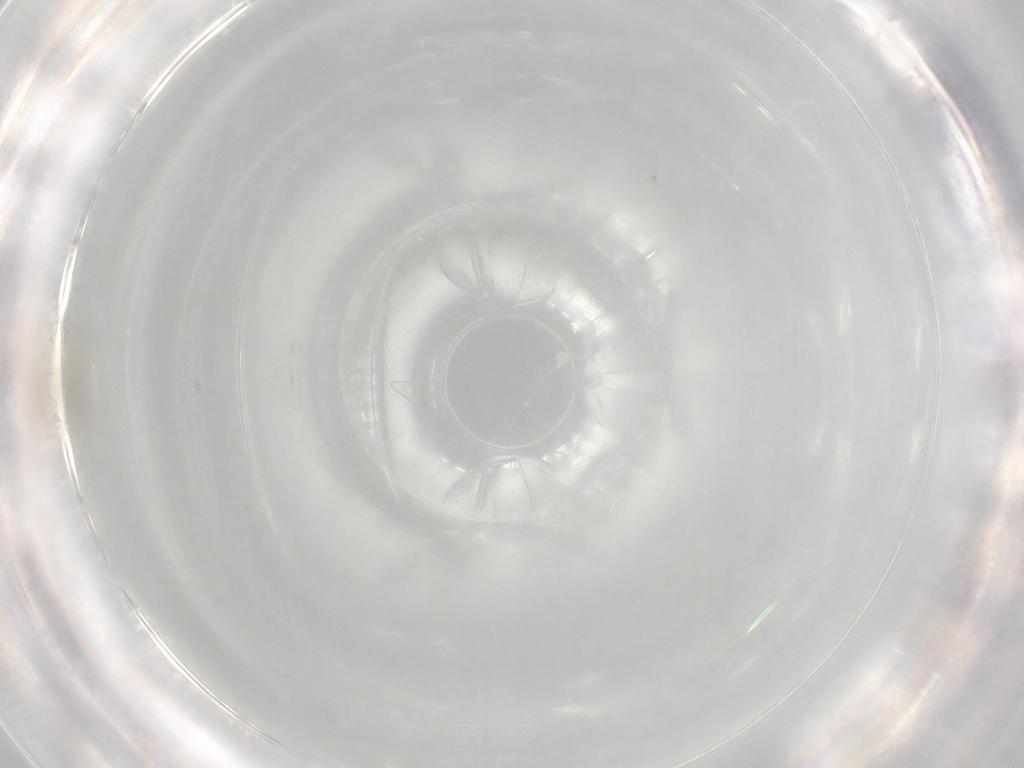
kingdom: Animalia
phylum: Arthropoda
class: Insecta
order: Diptera
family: Cecidomyiidae
